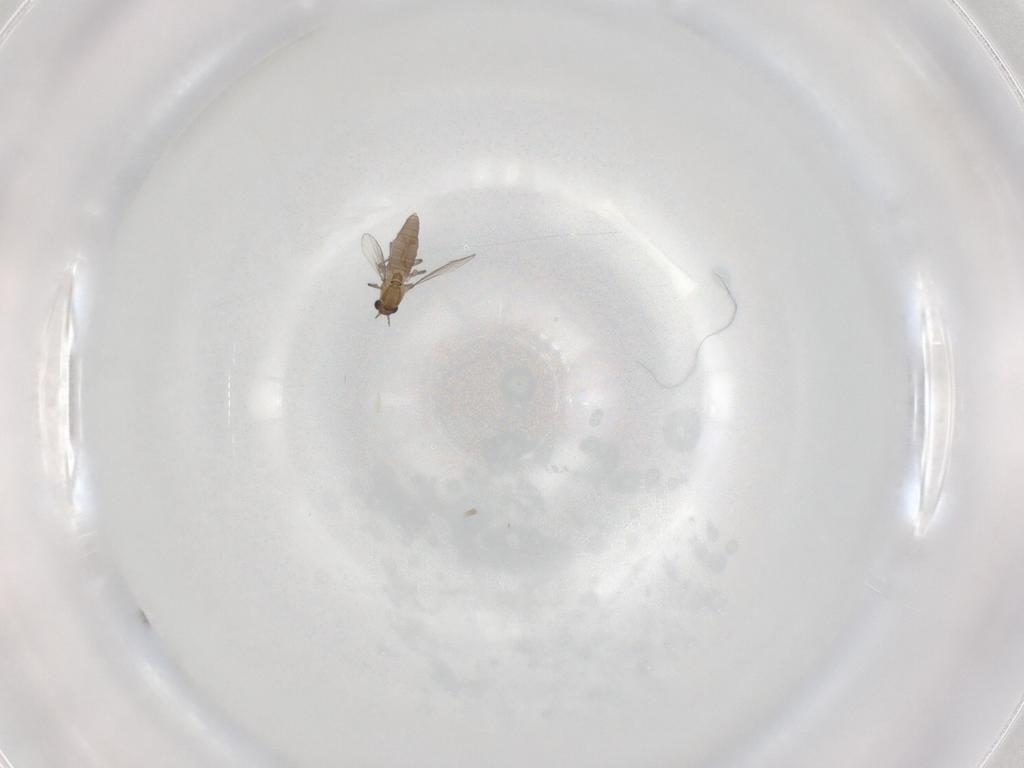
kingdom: Animalia
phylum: Arthropoda
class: Insecta
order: Diptera
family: Chironomidae
